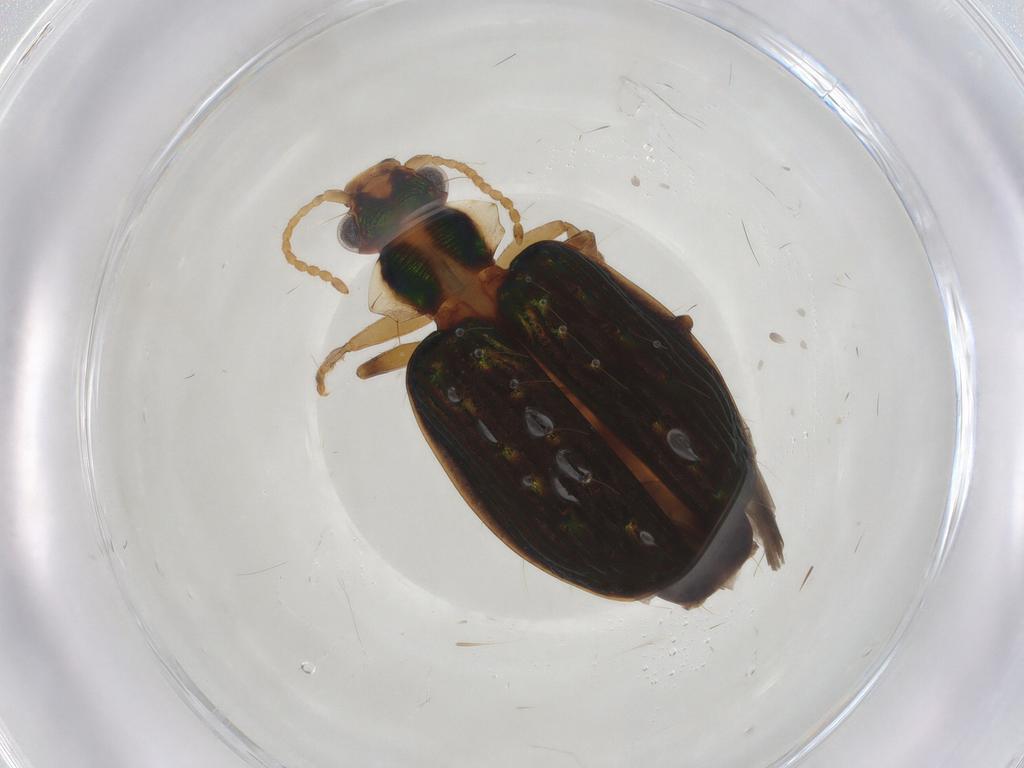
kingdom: Animalia
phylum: Arthropoda
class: Insecta
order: Coleoptera
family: Carabidae
